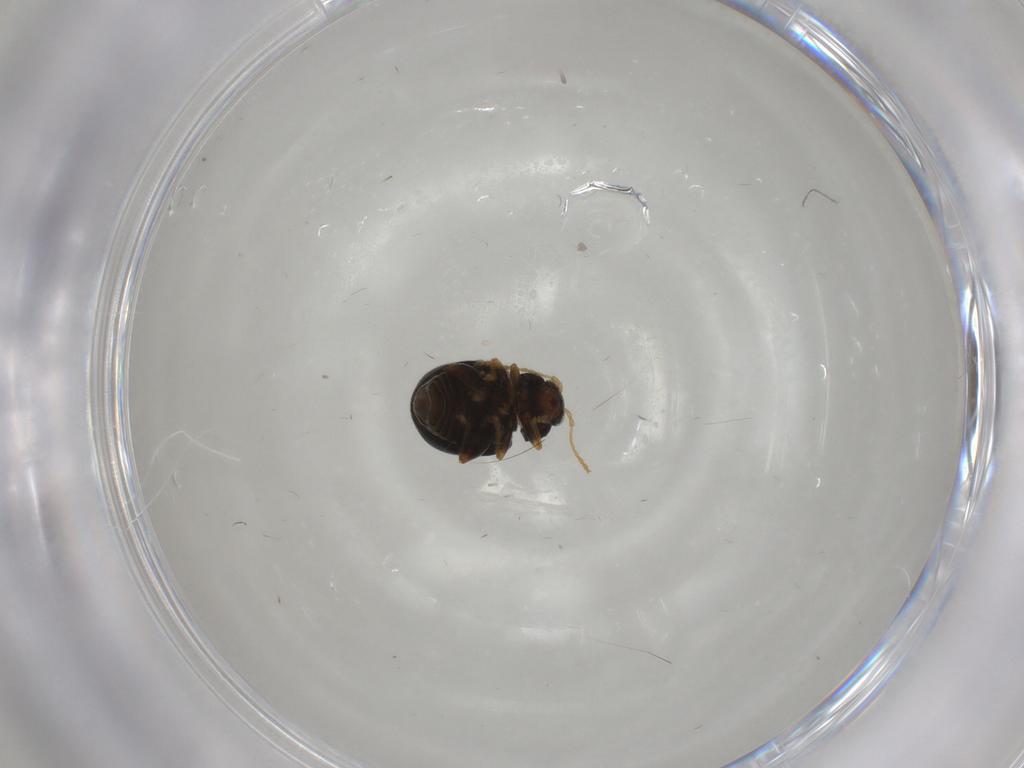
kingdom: Animalia
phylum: Arthropoda
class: Insecta
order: Coleoptera
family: Chrysomelidae
